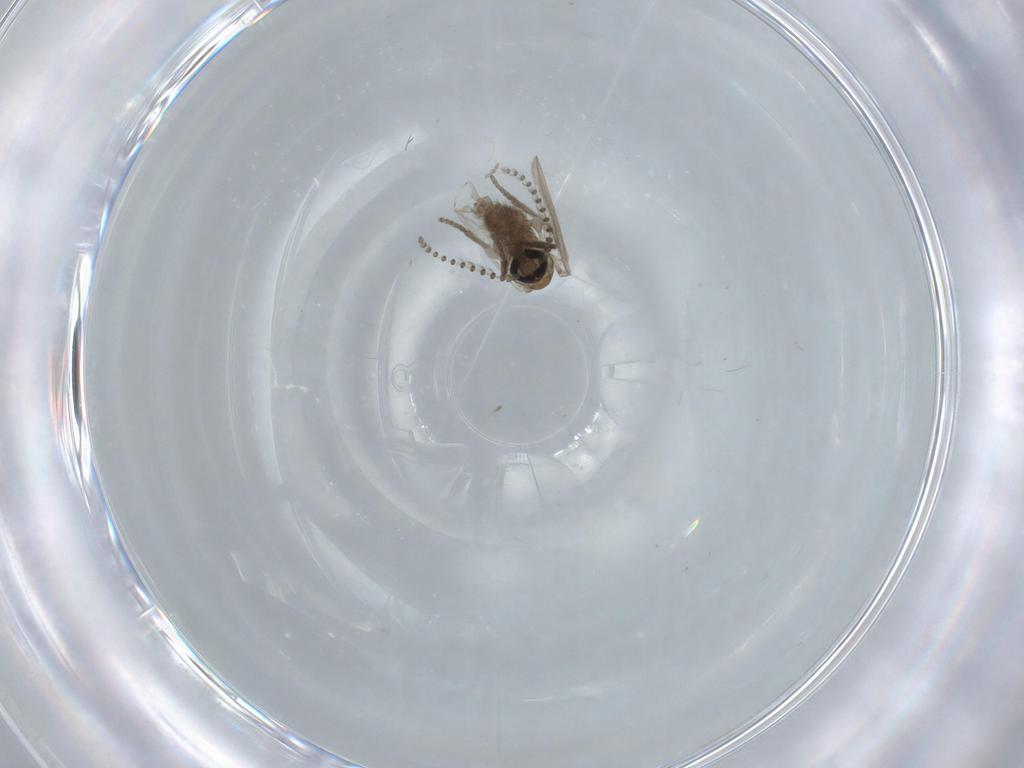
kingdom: Animalia
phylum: Arthropoda
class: Insecta
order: Diptera
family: Psychodidae
